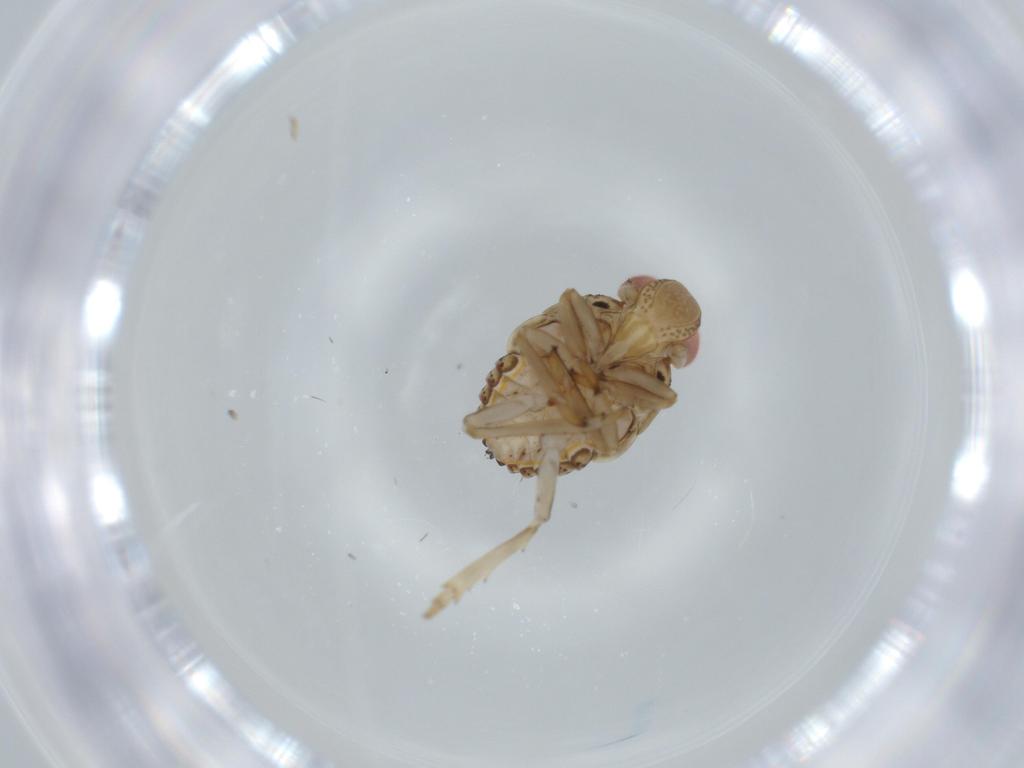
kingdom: Animalia
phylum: Arthropoda
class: Insecta
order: Hemiptera
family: Issidae
